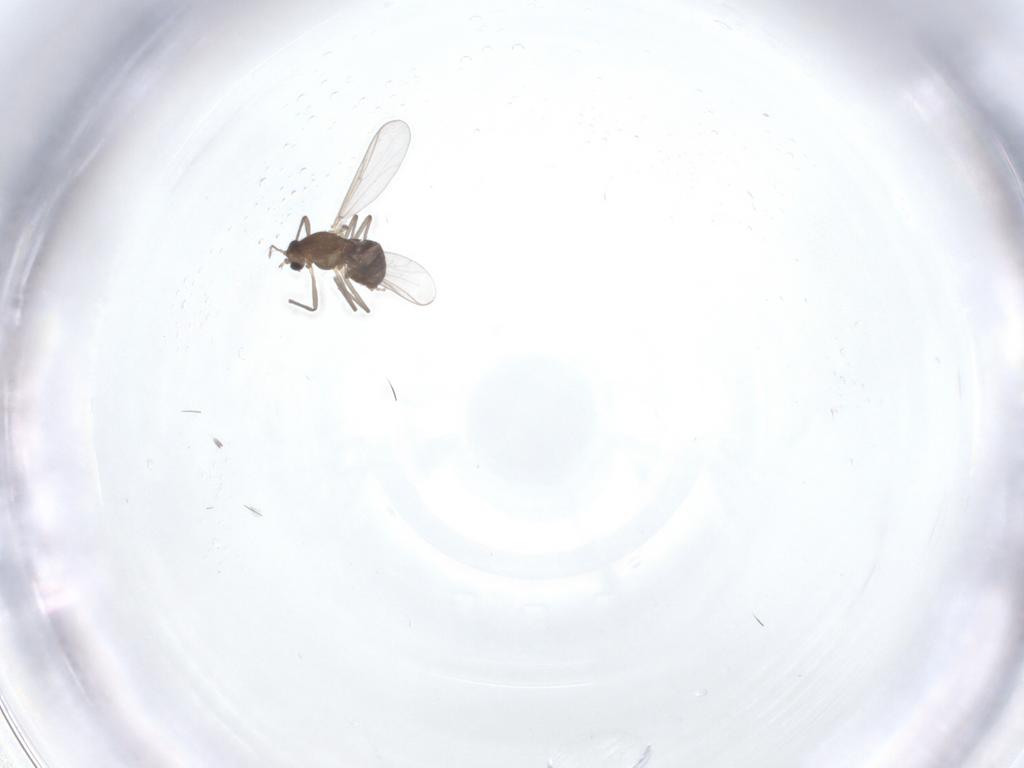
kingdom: Animalia
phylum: Arthropoda
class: Insecta
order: Diptera
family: Chironomidae
